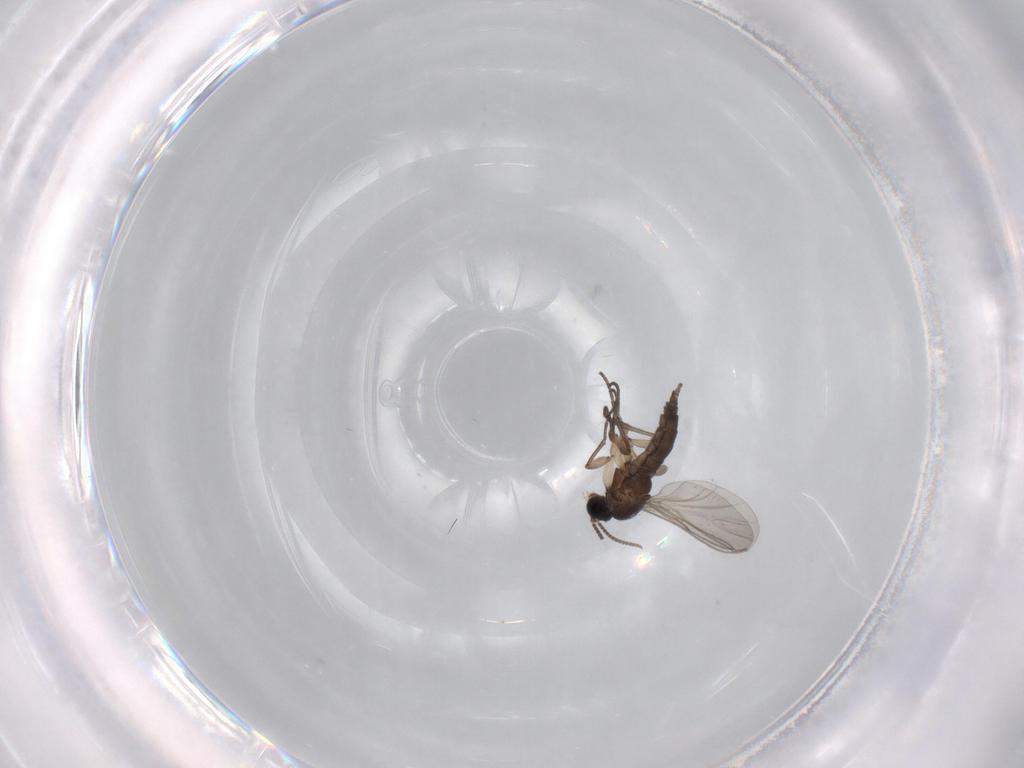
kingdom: Animalia
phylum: Arthropoda
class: Insecta
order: Diptera
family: Sciaridae
